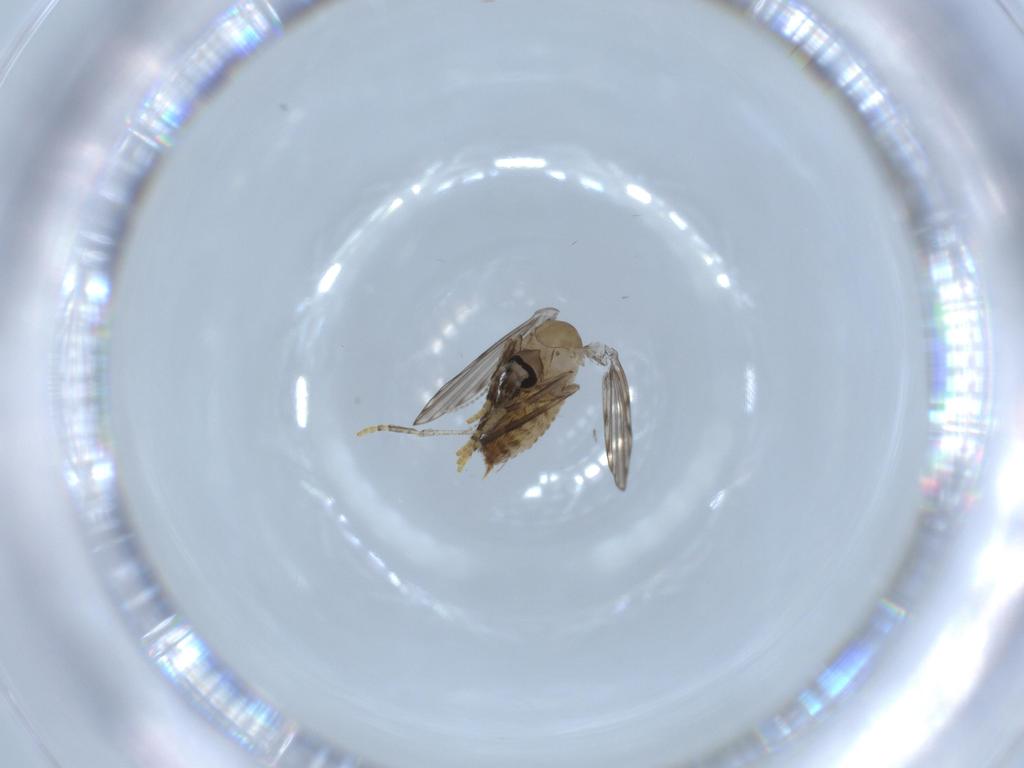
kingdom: Animalia
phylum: Arthropoda
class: Insecta
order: Diptera
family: Psychodidae
